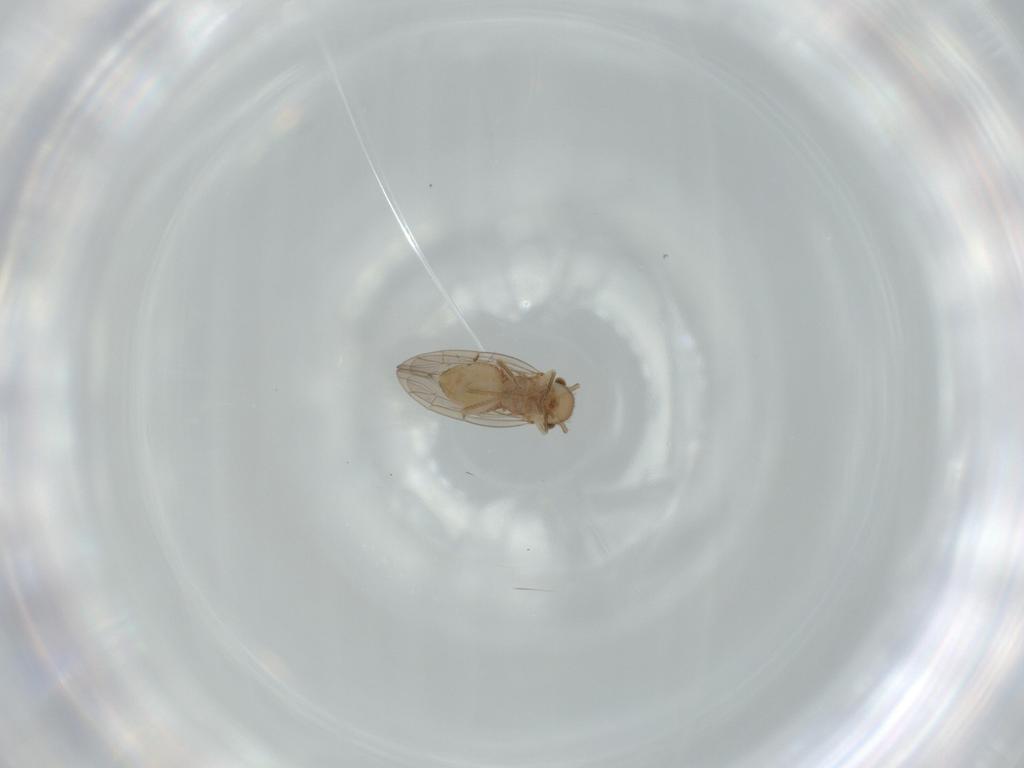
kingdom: Animalia
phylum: Arthropoda
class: Insecta
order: Psocodea
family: Ectopsocidae
